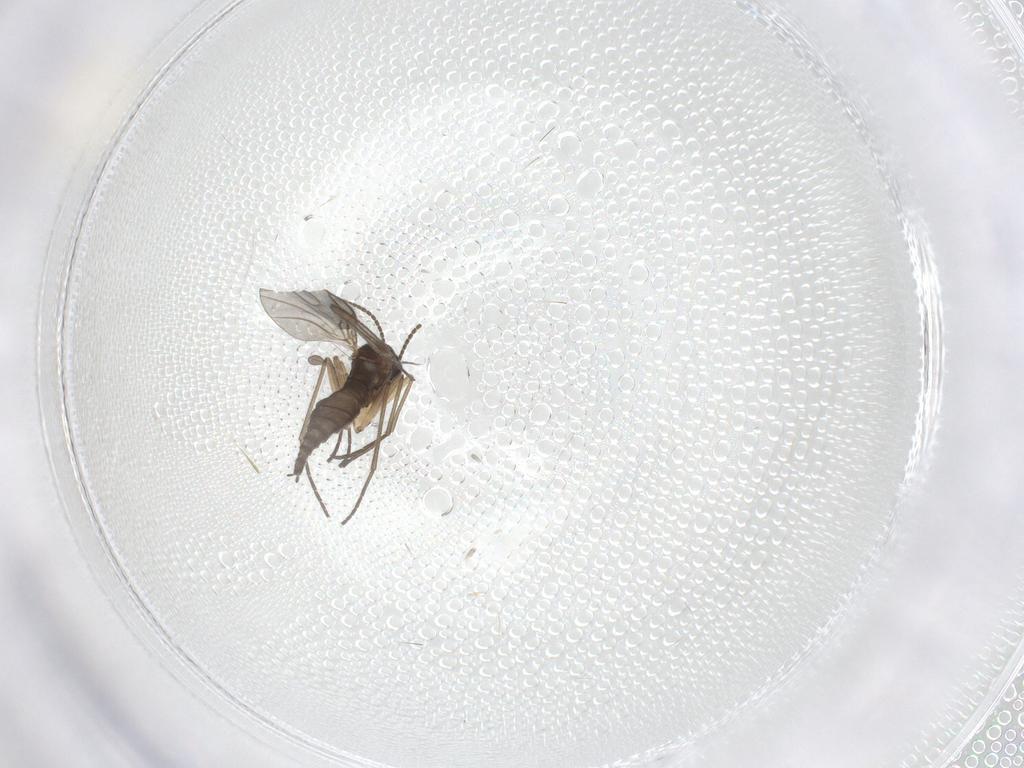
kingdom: Animalia
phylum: Arthropoda
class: Insecta
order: Diptera
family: Sciaridae
